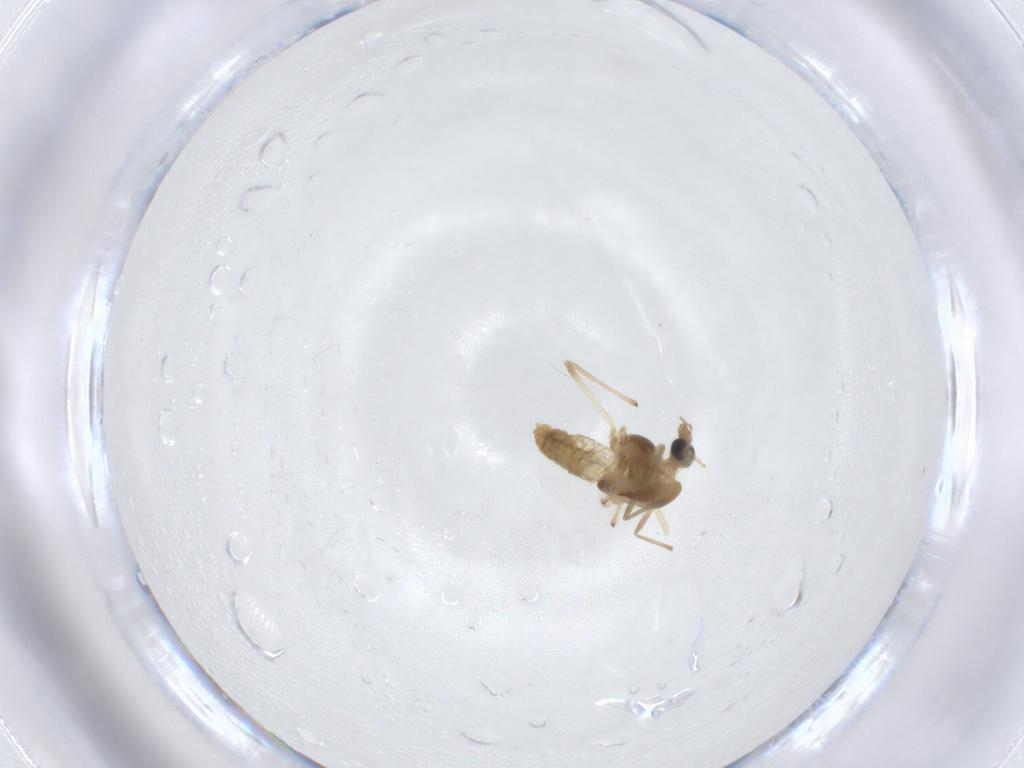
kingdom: Animalia
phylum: Arthropoda
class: Insecta
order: Diptera
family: Chironomidae
